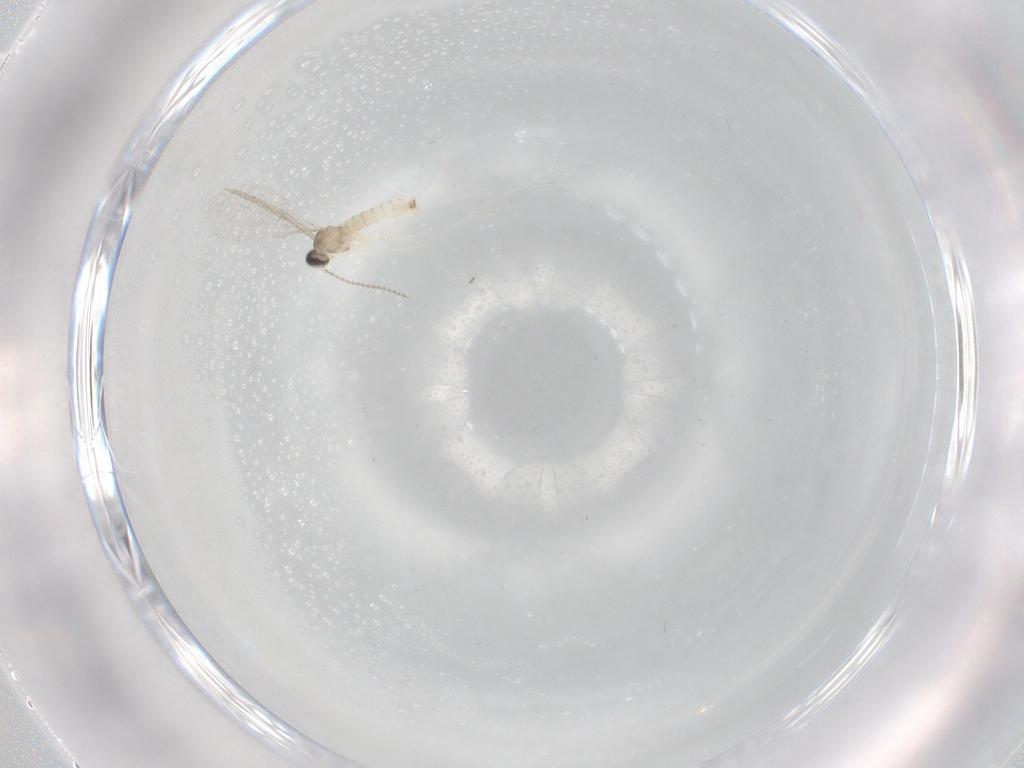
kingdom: Animalia
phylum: Arthropoda
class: Insecta
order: Diptera
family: Cecidomyiidae
